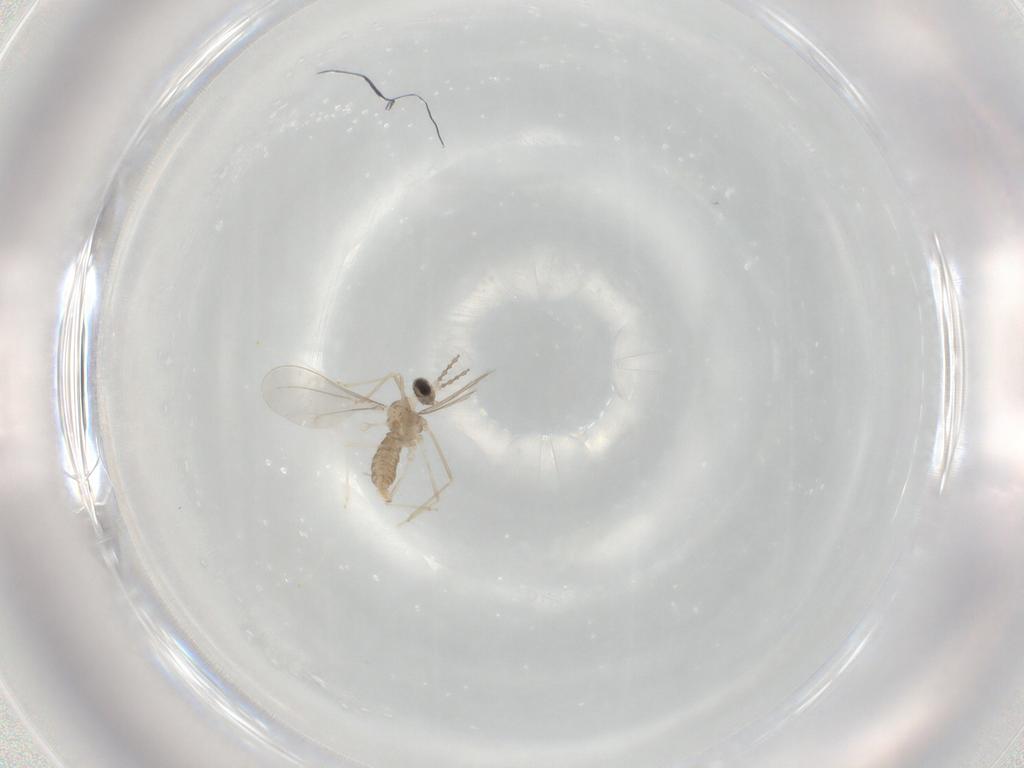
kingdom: Animalia
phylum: Arthropoda
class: Insecta
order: Diptera
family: Cecidomyiidae
